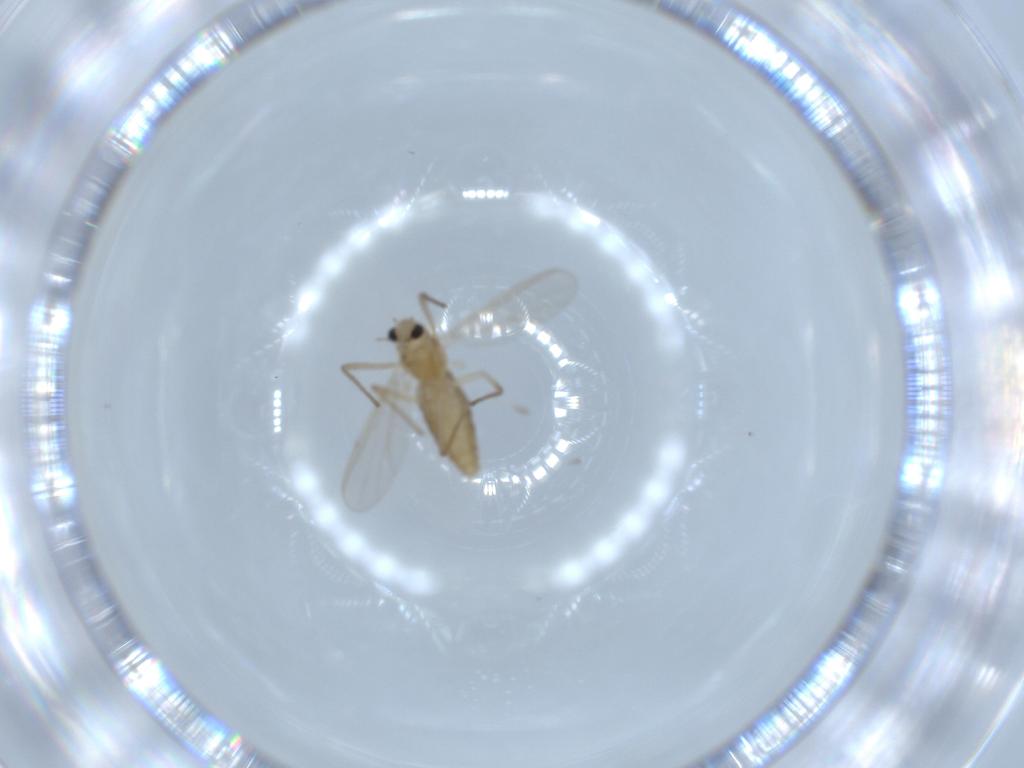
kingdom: Animalia
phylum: Arthropoda
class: Insecta
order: Diptera
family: Chironomidae
